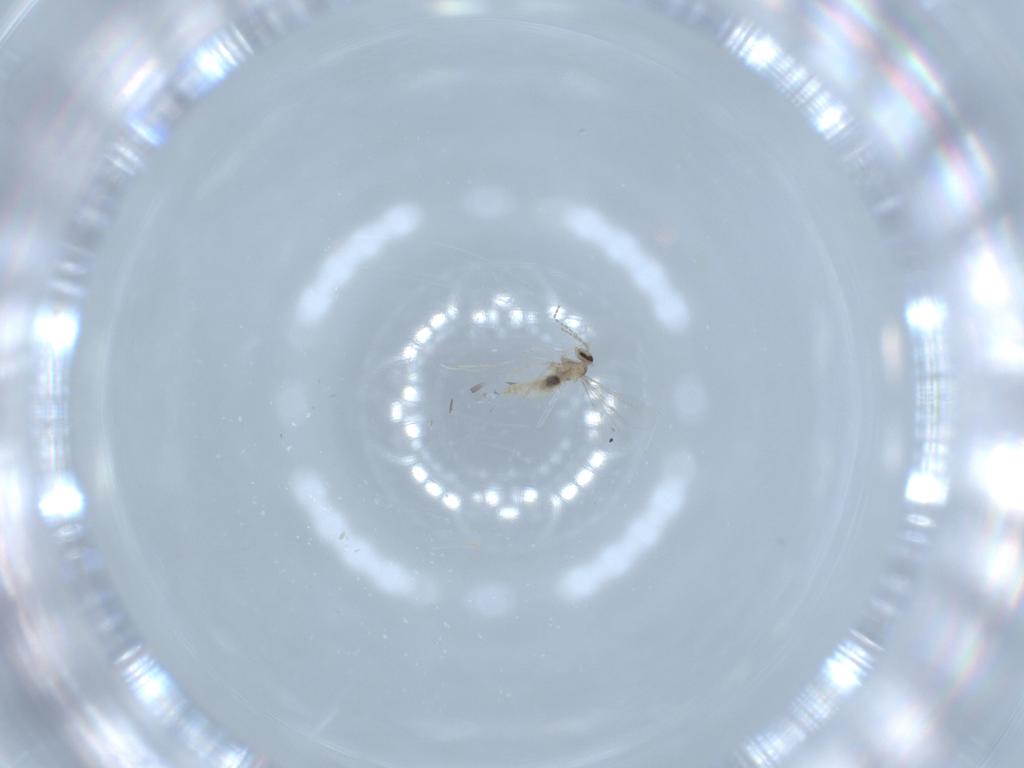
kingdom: Animalia
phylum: Arthropoda
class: Insecta
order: Diptera
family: Cecidomyiidae
